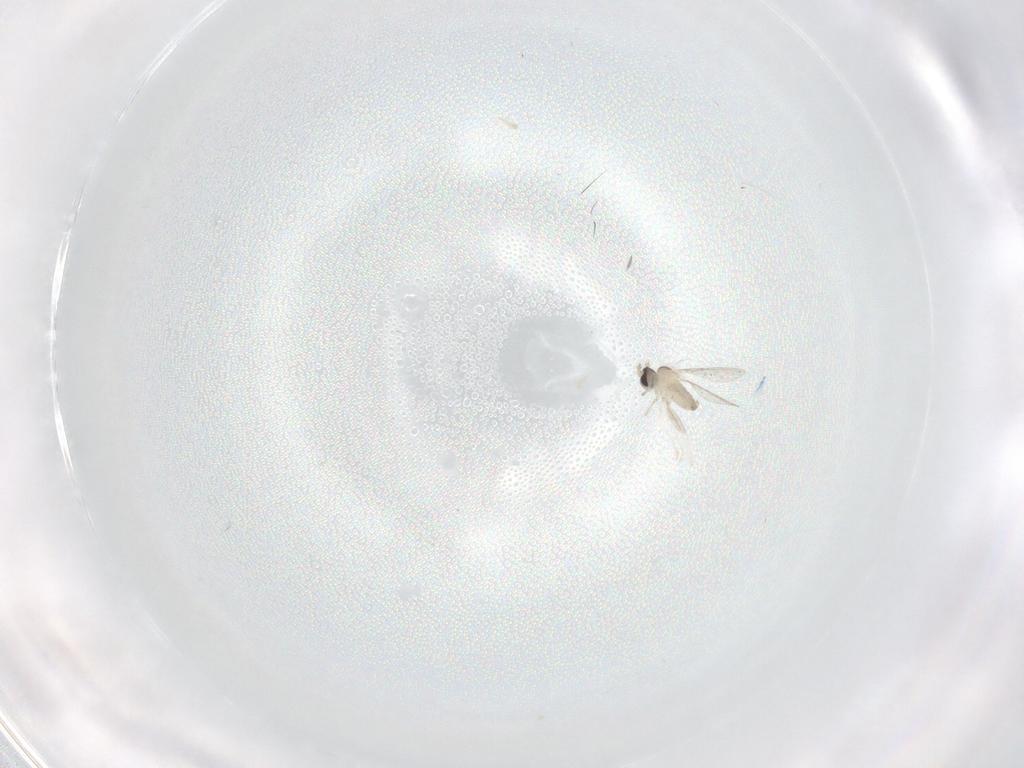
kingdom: Animalia
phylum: Arthropoda
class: Insecta
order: Diptera
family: Cecidomyiidae
